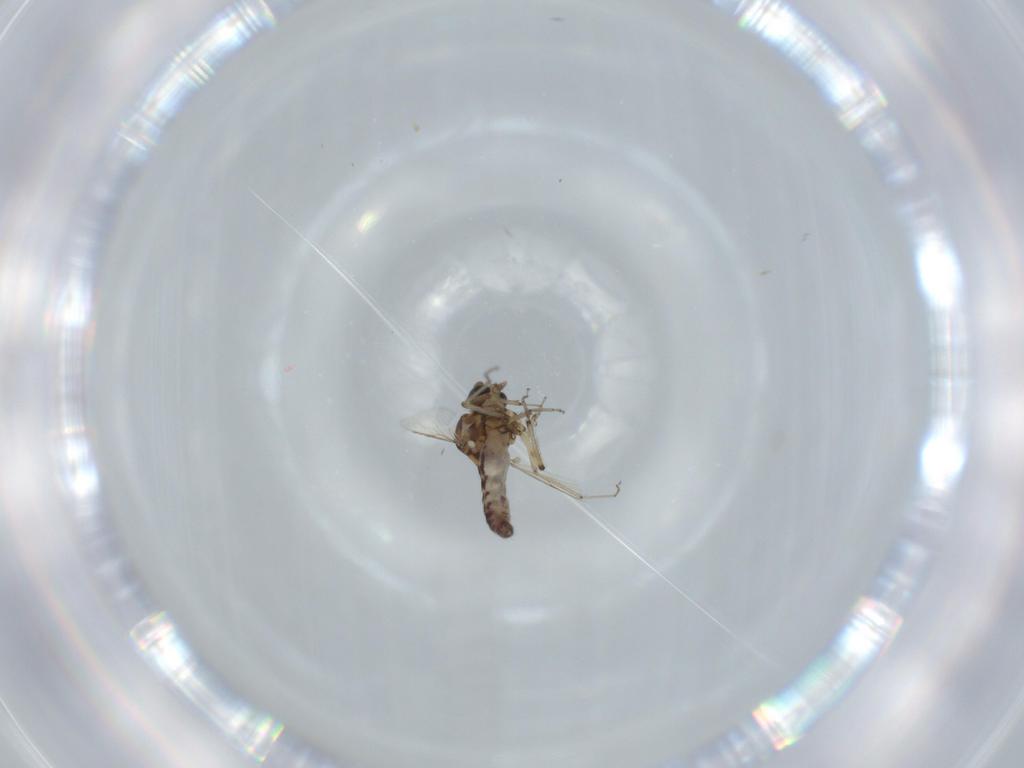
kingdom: Animalia
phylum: Arthropoda
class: Insecta
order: Diptera
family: Ceratopogonidae
